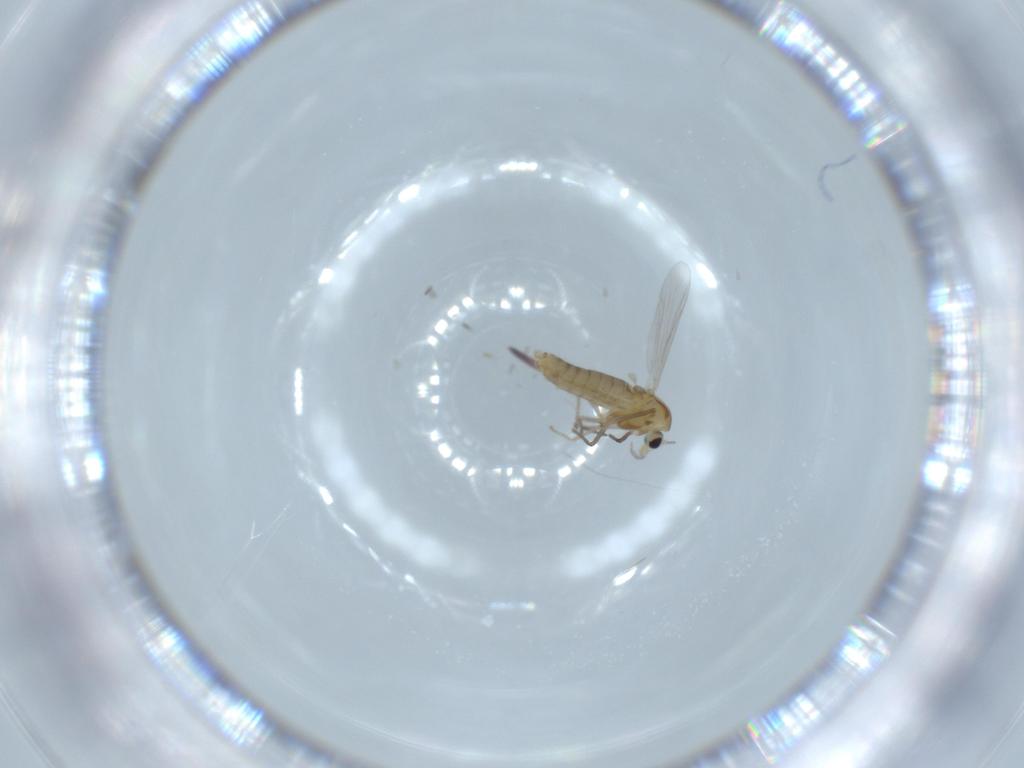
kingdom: Animalia
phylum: Arthropoda
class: Insecta
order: Diptera
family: Chironomidae
